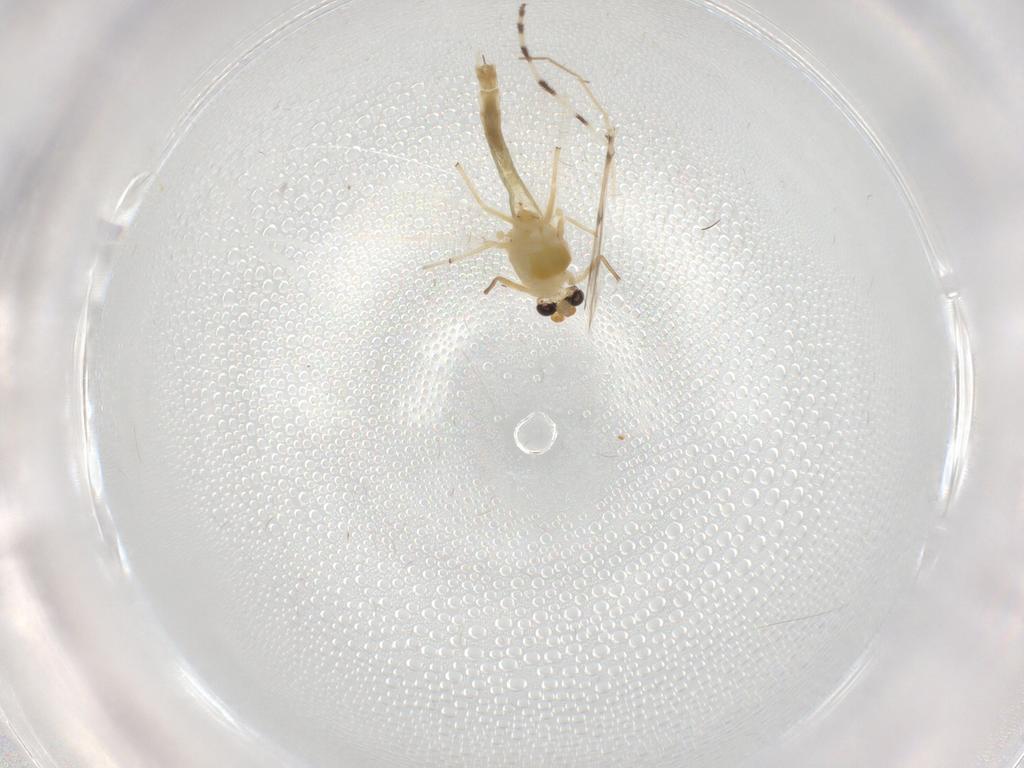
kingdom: Animalia
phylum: Arthropoda
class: Insecta
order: Diptera
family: Chironomidae
